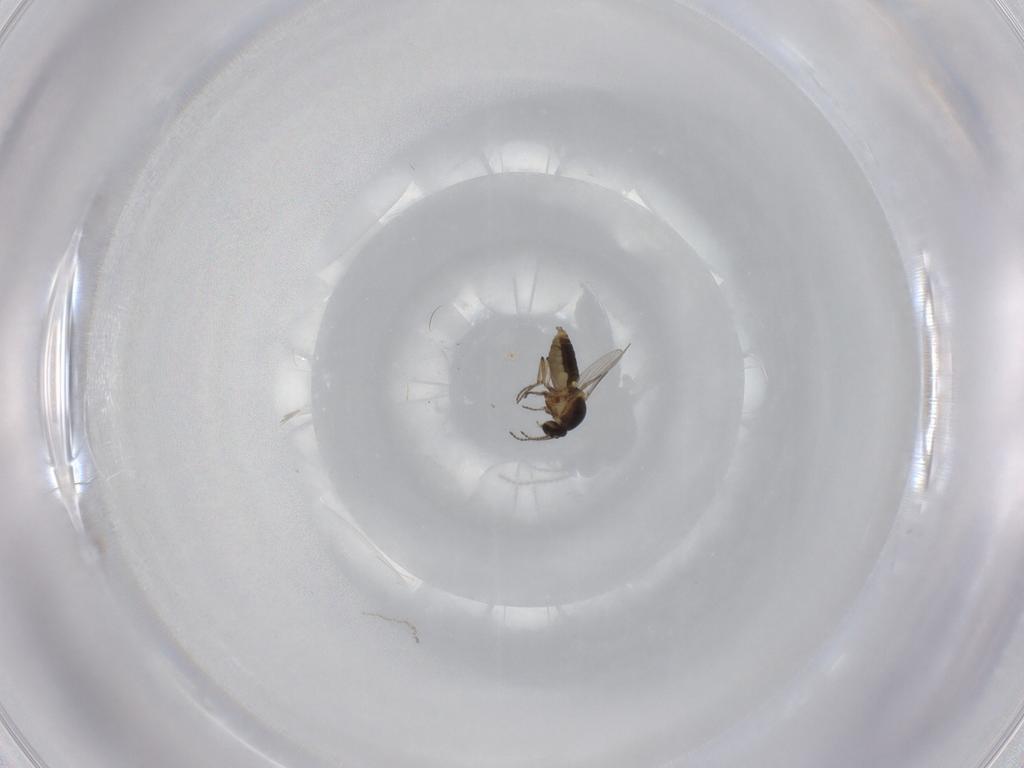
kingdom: Animalia
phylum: Arthropoda
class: Insecta
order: Diptera
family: Ceratopogonidae
